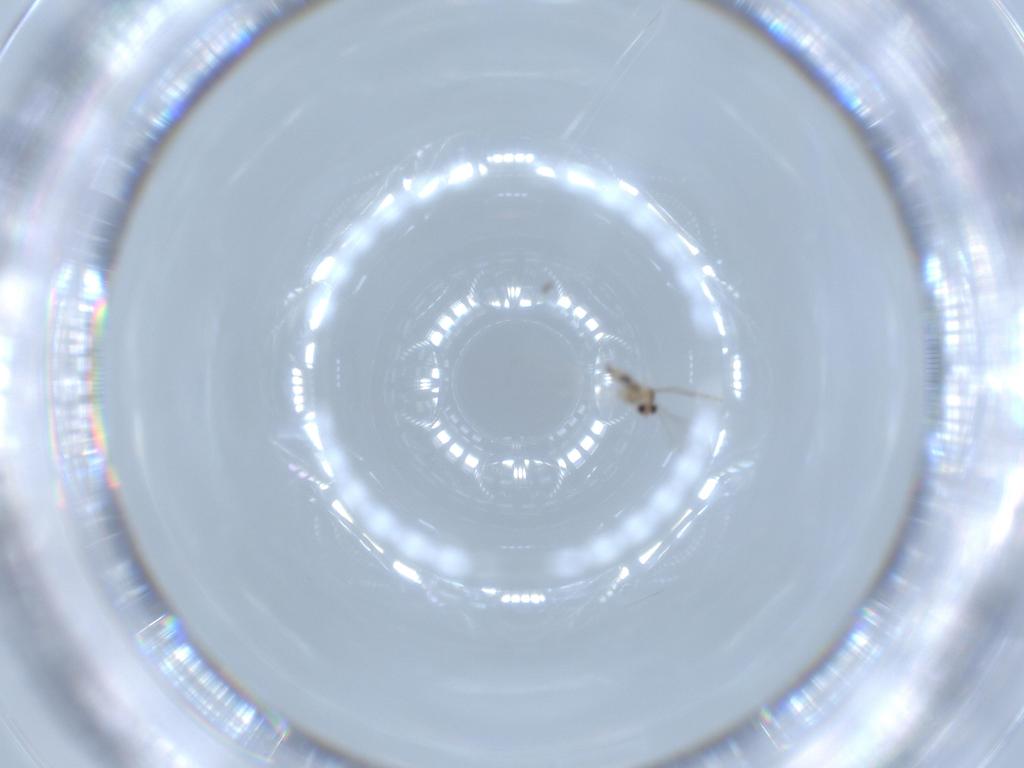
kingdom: Animalia
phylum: Arthropoda
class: Insecta
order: Diptera
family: Cecidomyiidae
